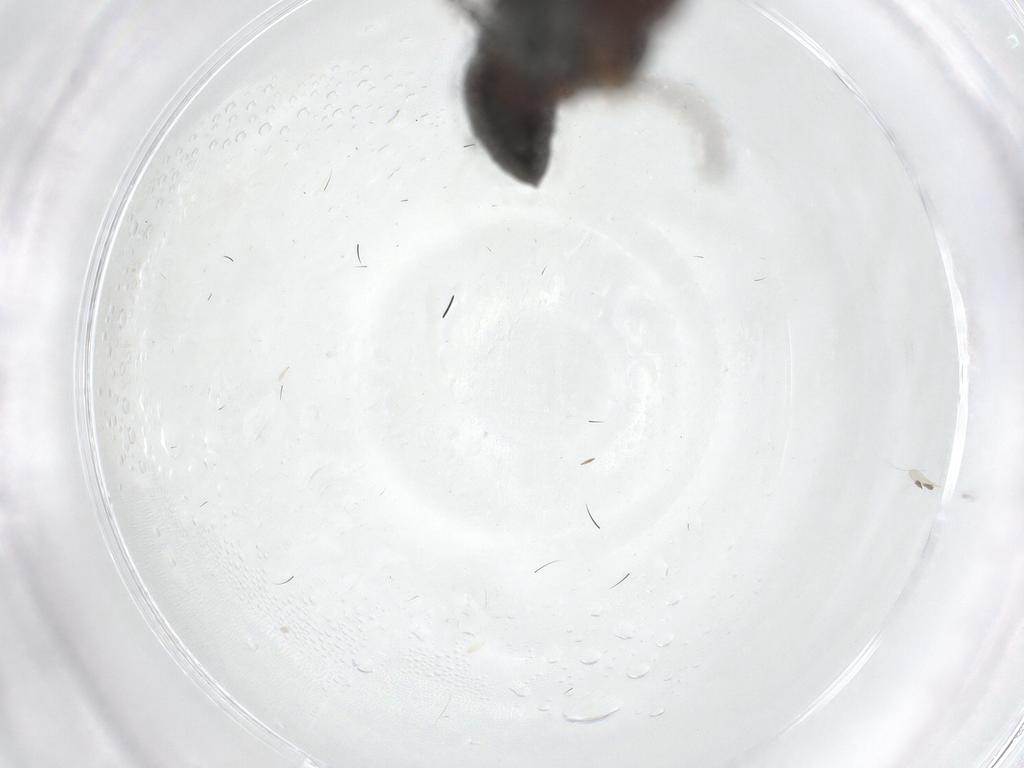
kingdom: Animalia
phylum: Arthropoda
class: Insecta
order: Diptera
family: Sepsidae
